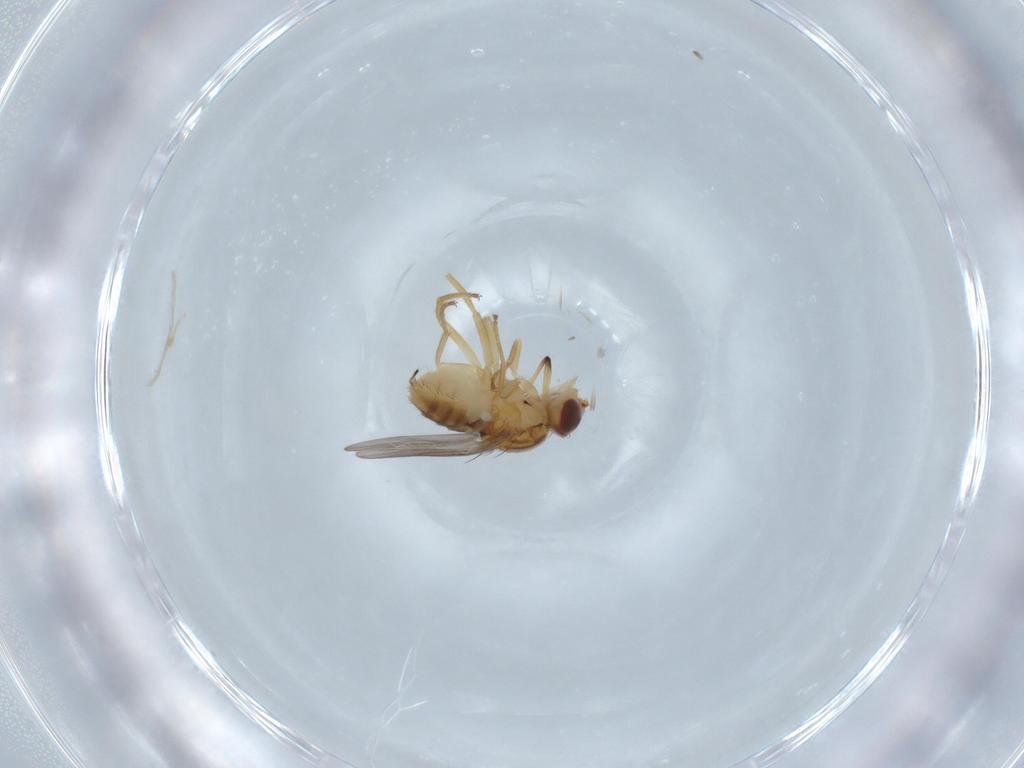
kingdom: Animalia
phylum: Arthropoda
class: Insecta
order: Diptera
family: Chloropidae
